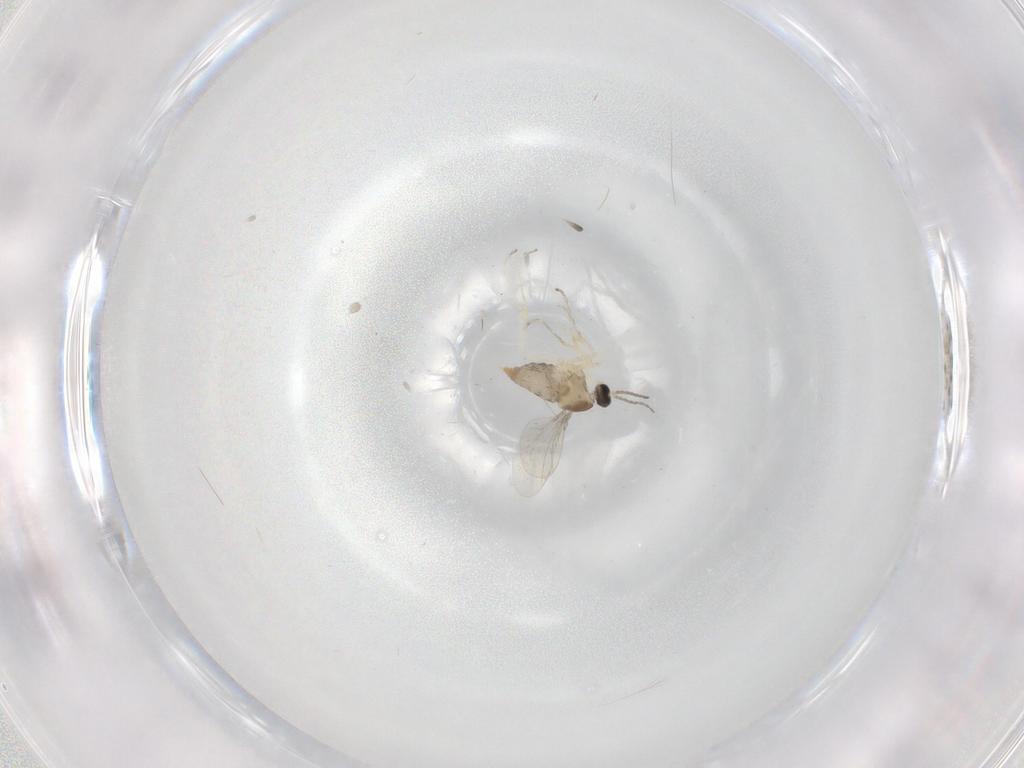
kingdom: Animalia
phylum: Arthropoda
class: Insecta
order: Diptera
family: Cecidomyiidae
